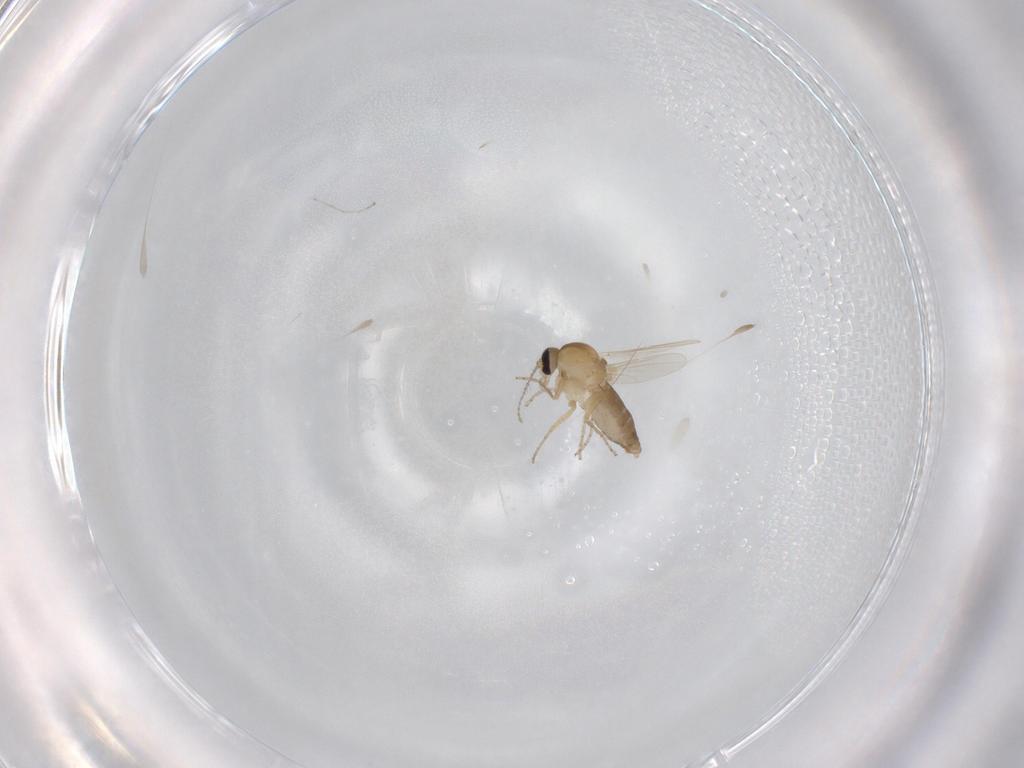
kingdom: Animalia
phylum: Arthropoda
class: Insecta
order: Diptera
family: Ceratopogonidae
